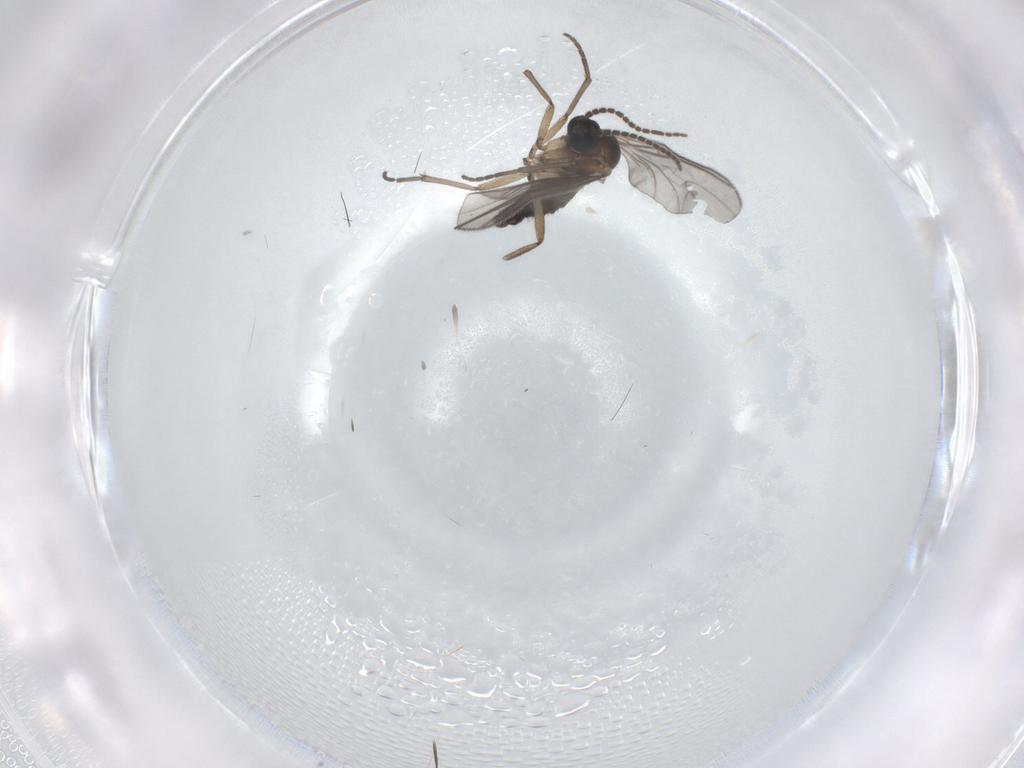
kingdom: Animalia
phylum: Arthropoda
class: Insecta
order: Diptera
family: Sciaridae
